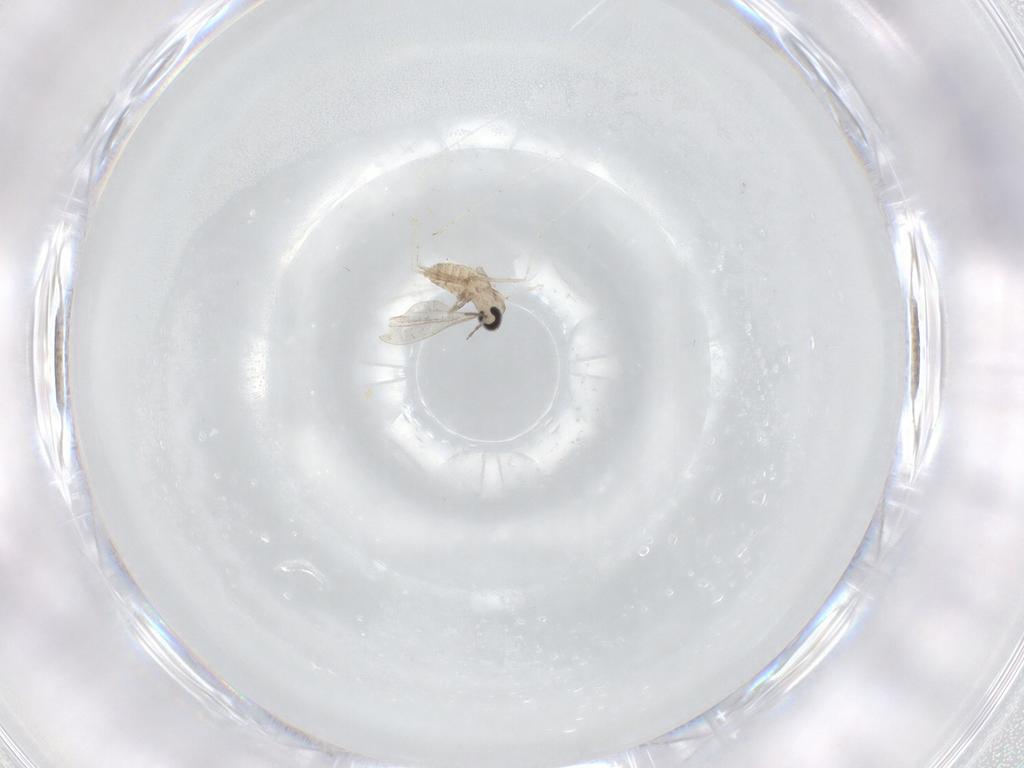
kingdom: Animalia
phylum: Arthropoda
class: Insecta
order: Diptera
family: Cecidomyiidae
